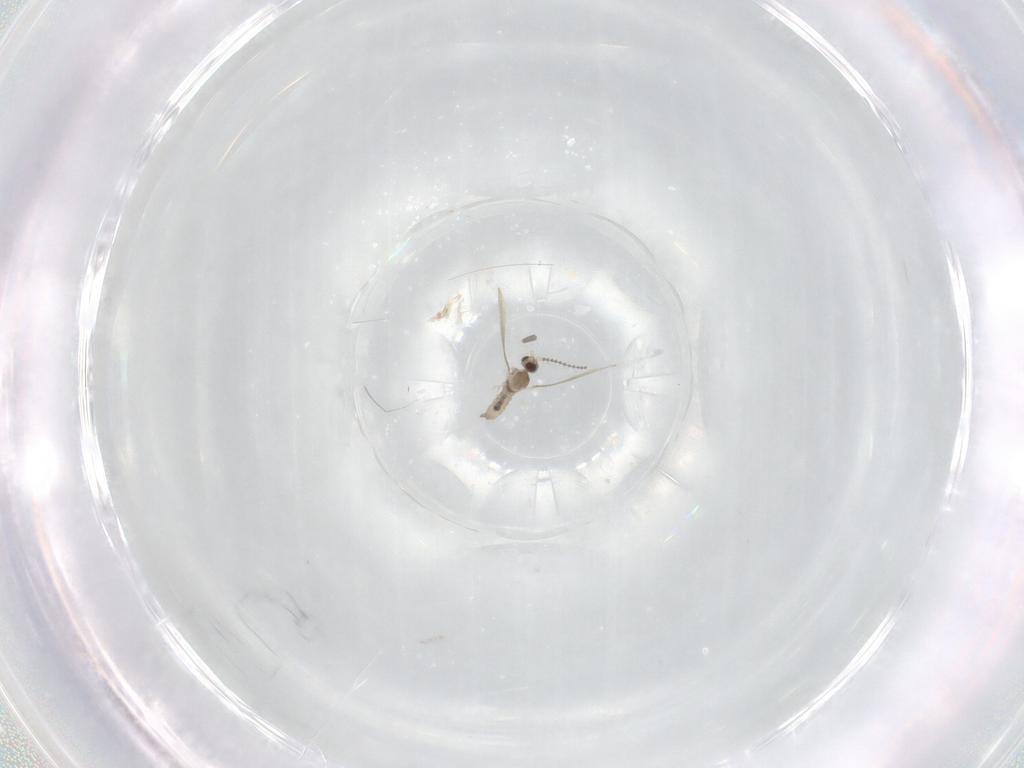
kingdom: Animalia
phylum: Arthropoda
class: Insecta
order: Diptera
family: Cecidomyiidae
